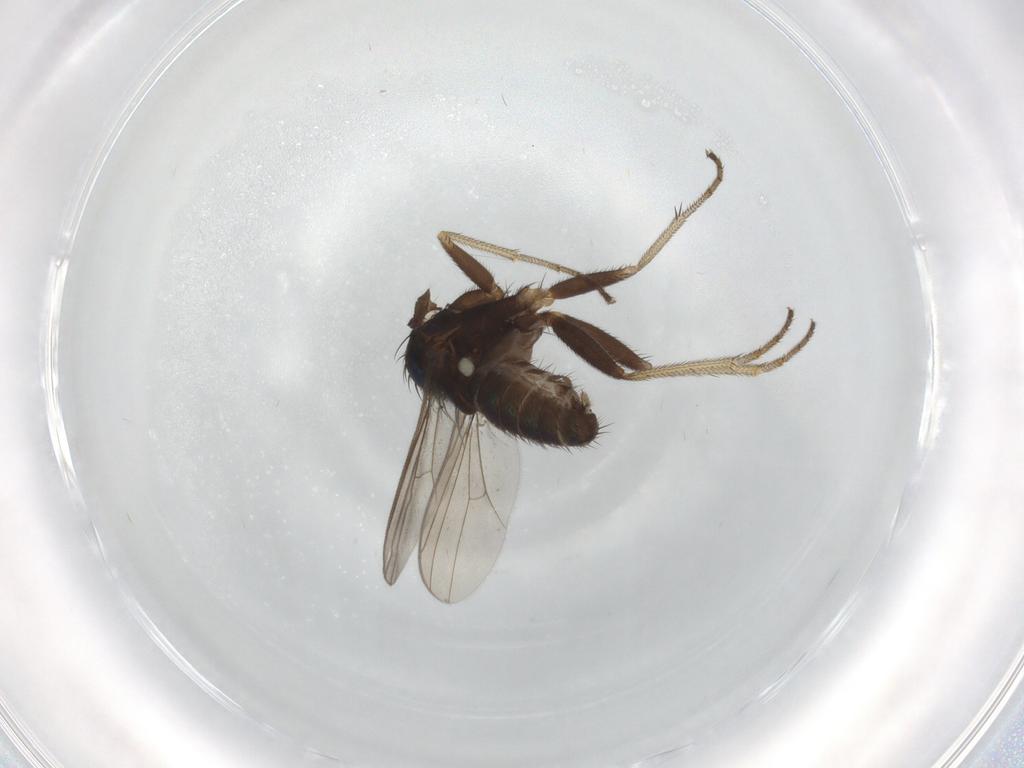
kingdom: Animalia
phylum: Arthropoda
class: Insecta
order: Diptera
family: Dolichopodidae
